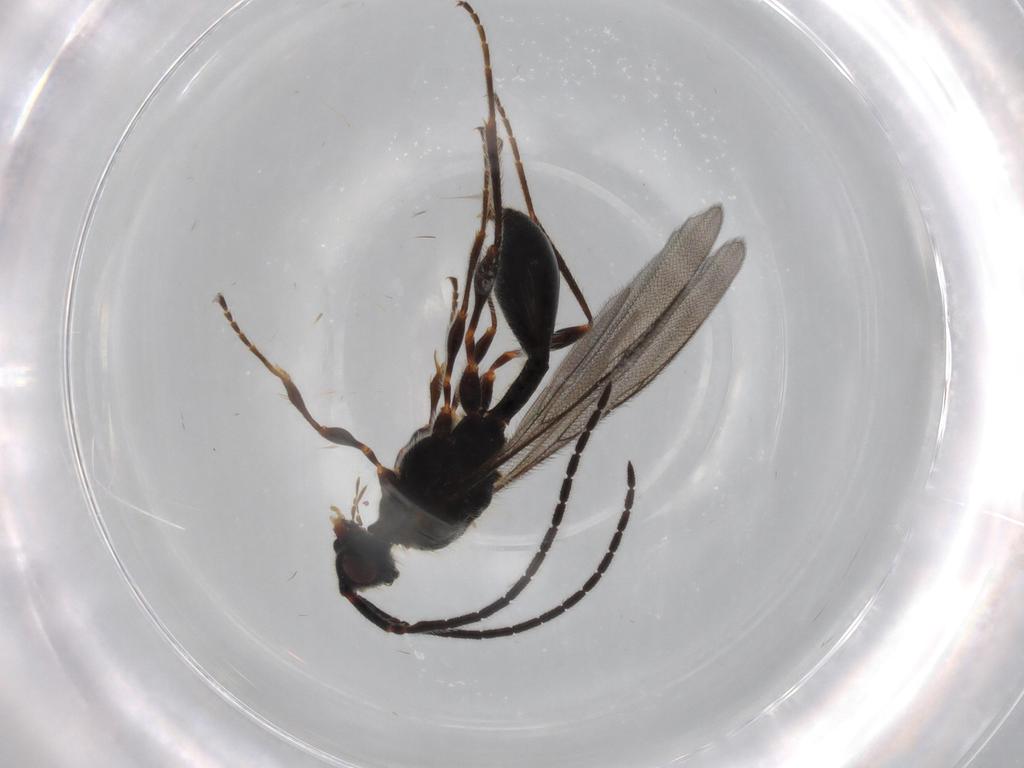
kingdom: Animalia
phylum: Arthropoda
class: Insecta
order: Hymenoptera
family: Diapriidae
